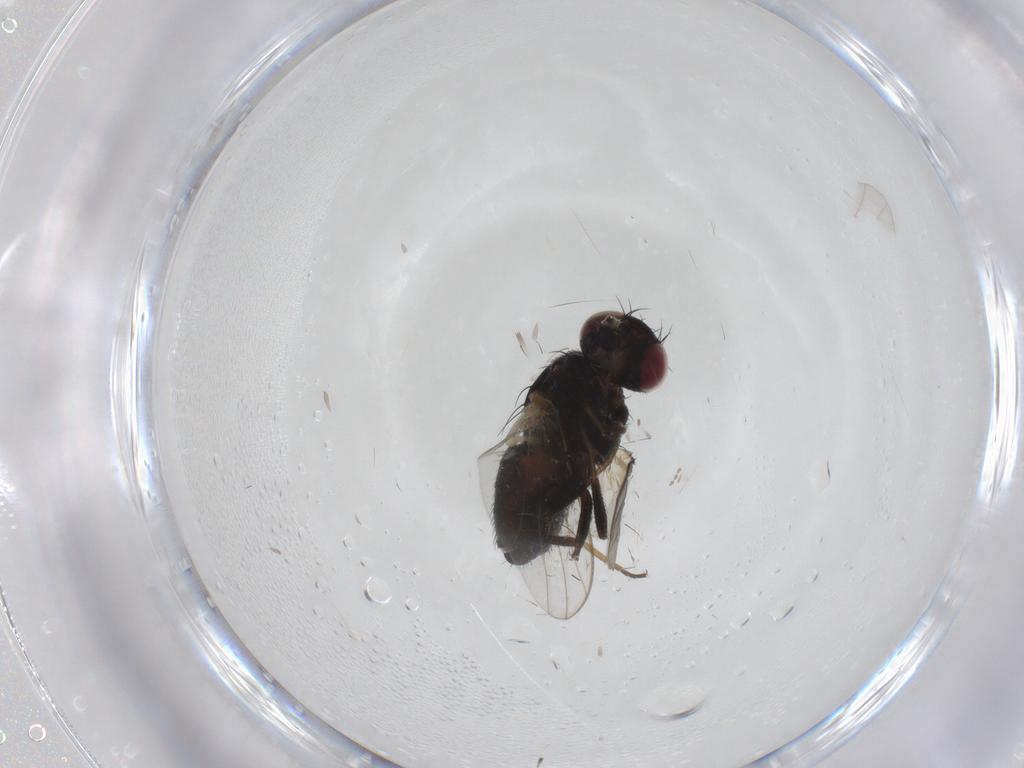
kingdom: Animalia
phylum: Arthropoda
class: Insecta
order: Diptera
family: Carnidae
